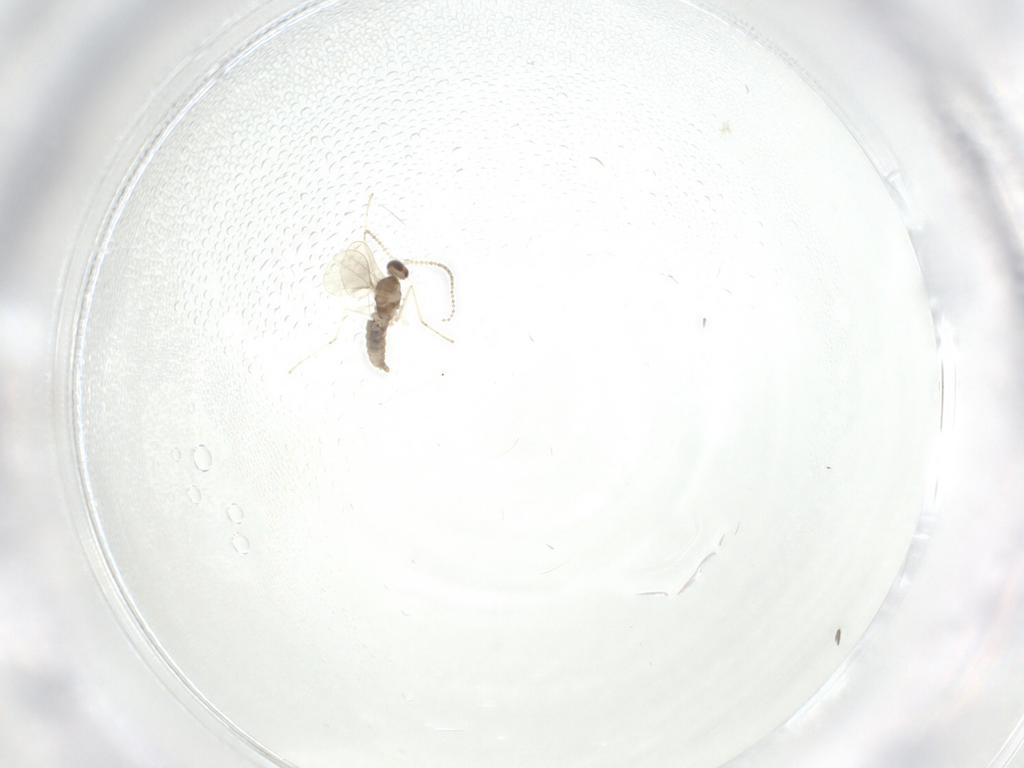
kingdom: Animalia
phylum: Arthropoda
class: Insecta
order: Diptera
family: Cecidomyiidae
